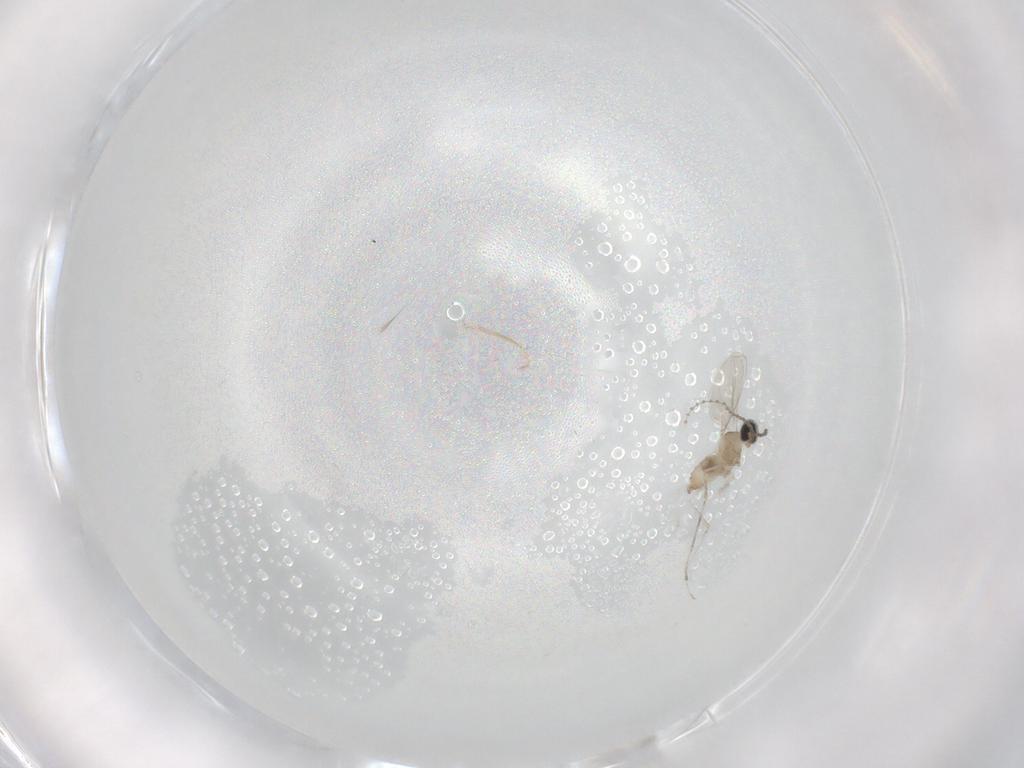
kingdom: Animalia
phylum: Arthropoda
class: Insecta
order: Diptera
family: Cecidomyiidae
